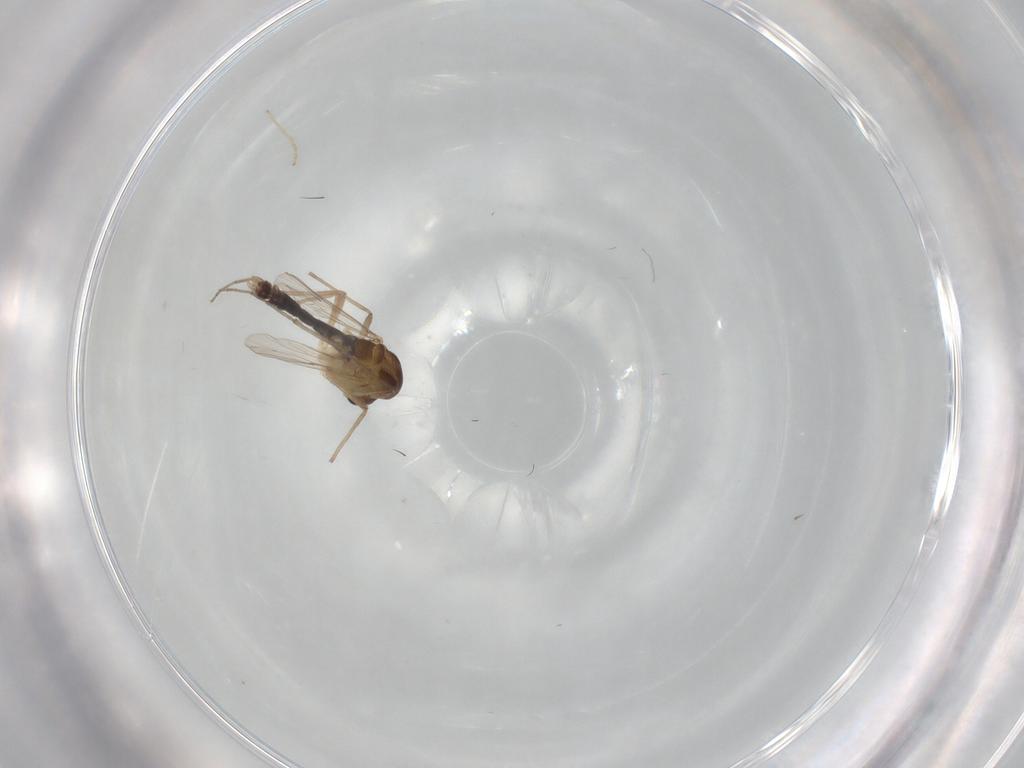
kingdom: Animalia
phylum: Arthropoda
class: Insecta
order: Diptera
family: Chironomidae
